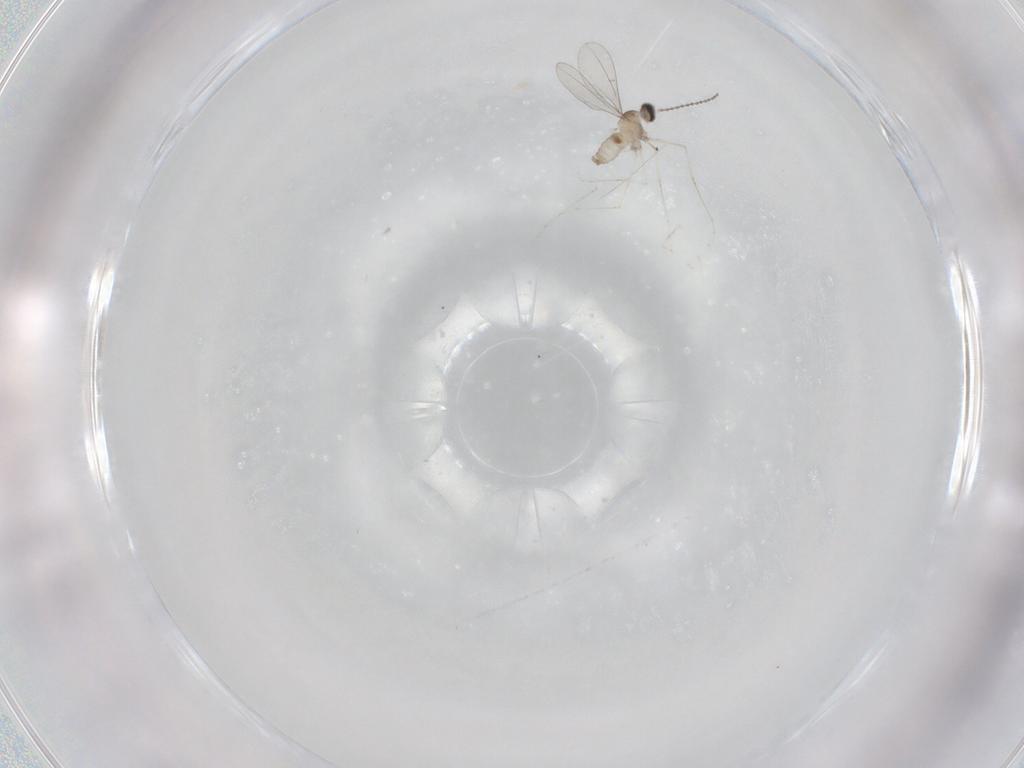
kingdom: Animalia
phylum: Arthropoda
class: Insecta
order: Diptera
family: Cecidomyiidae
